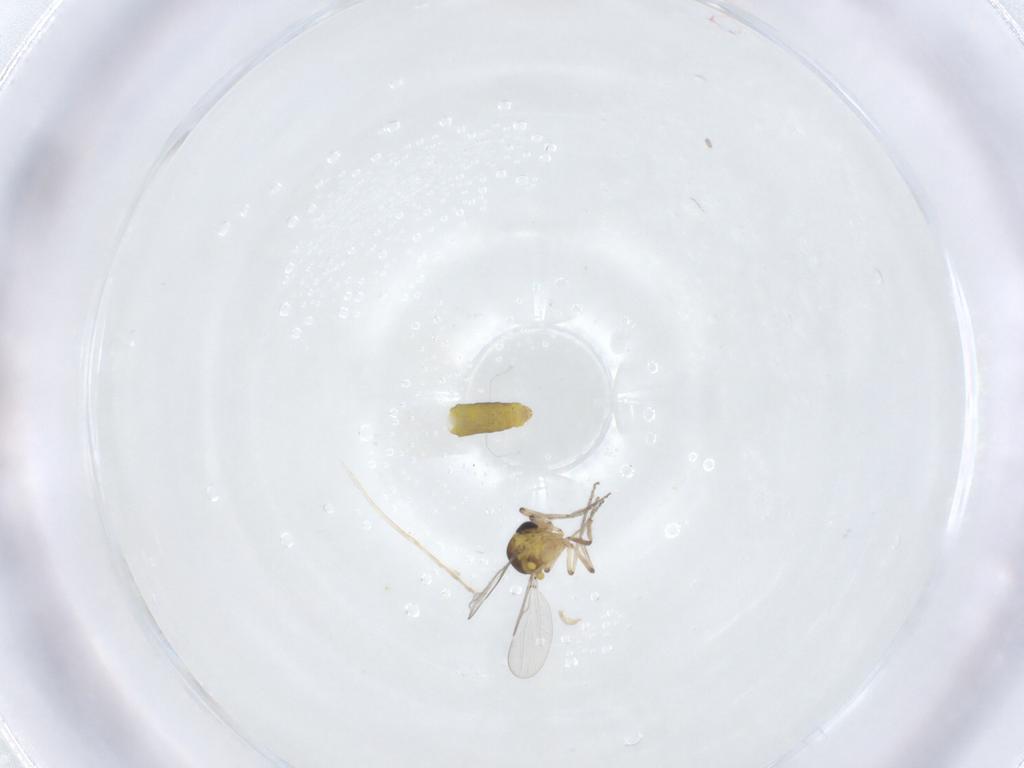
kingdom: Animalia
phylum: Arthropoda
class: Insecta
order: Diptera
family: Ceratopogonidae
